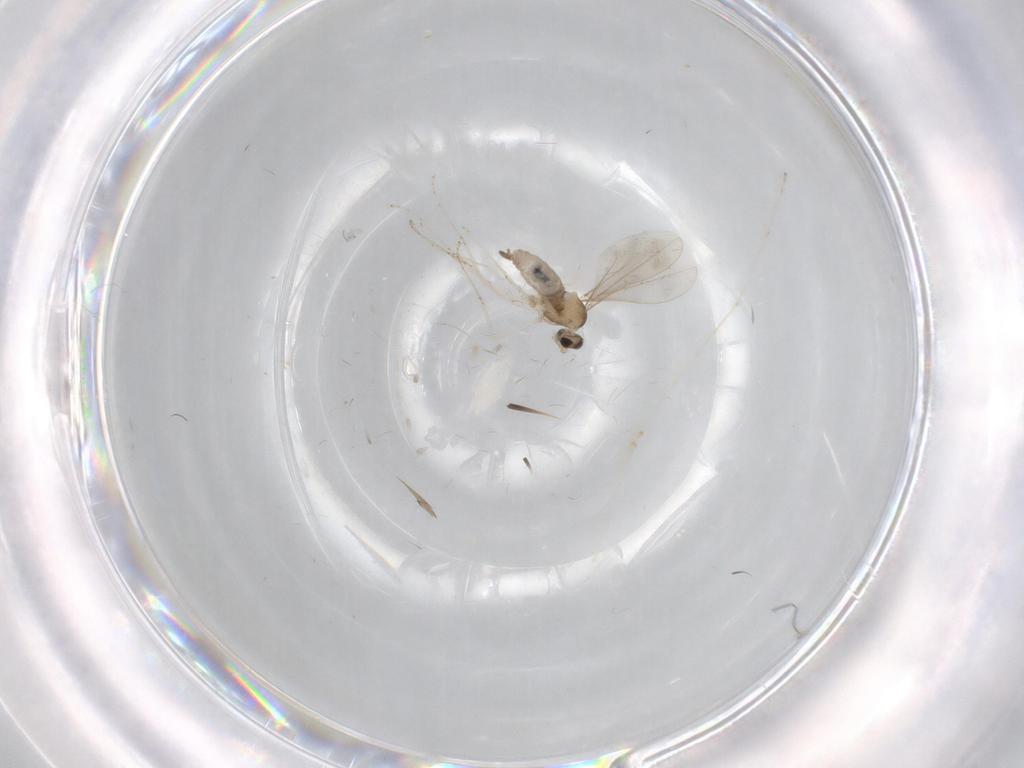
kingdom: Animalia
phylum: Arthropoda
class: Insecta
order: Diptera
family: Cecidomyiidae
